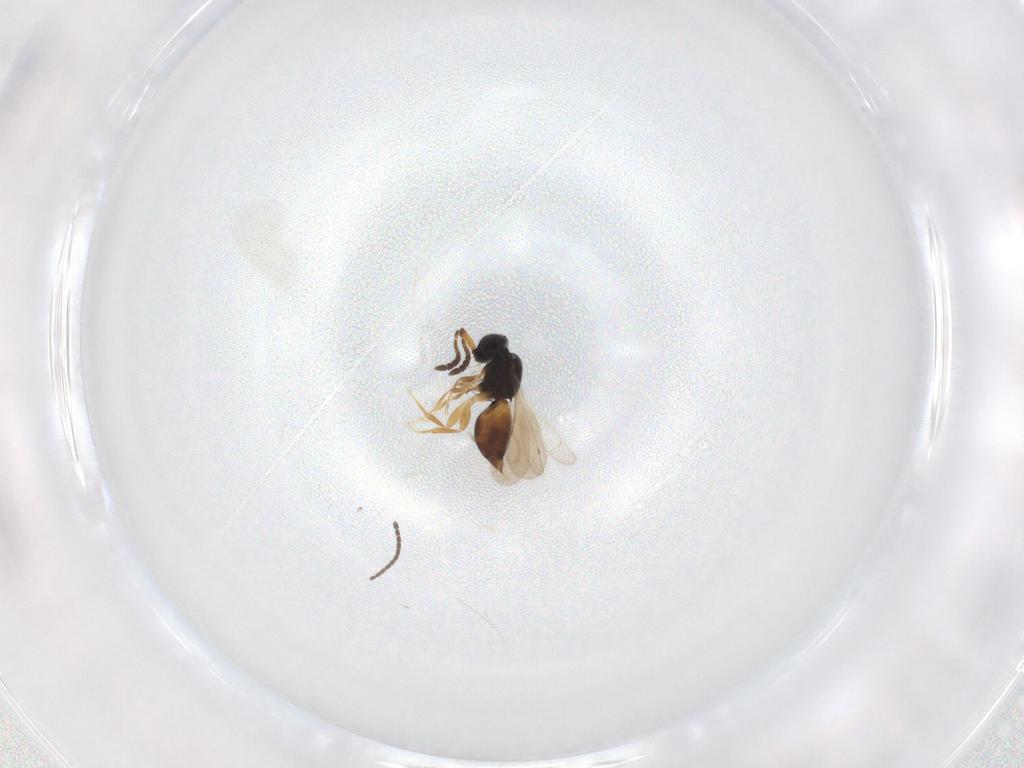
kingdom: Animalia
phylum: Arthropoda
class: Insecta
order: Hymenoptera
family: Eulophidae
